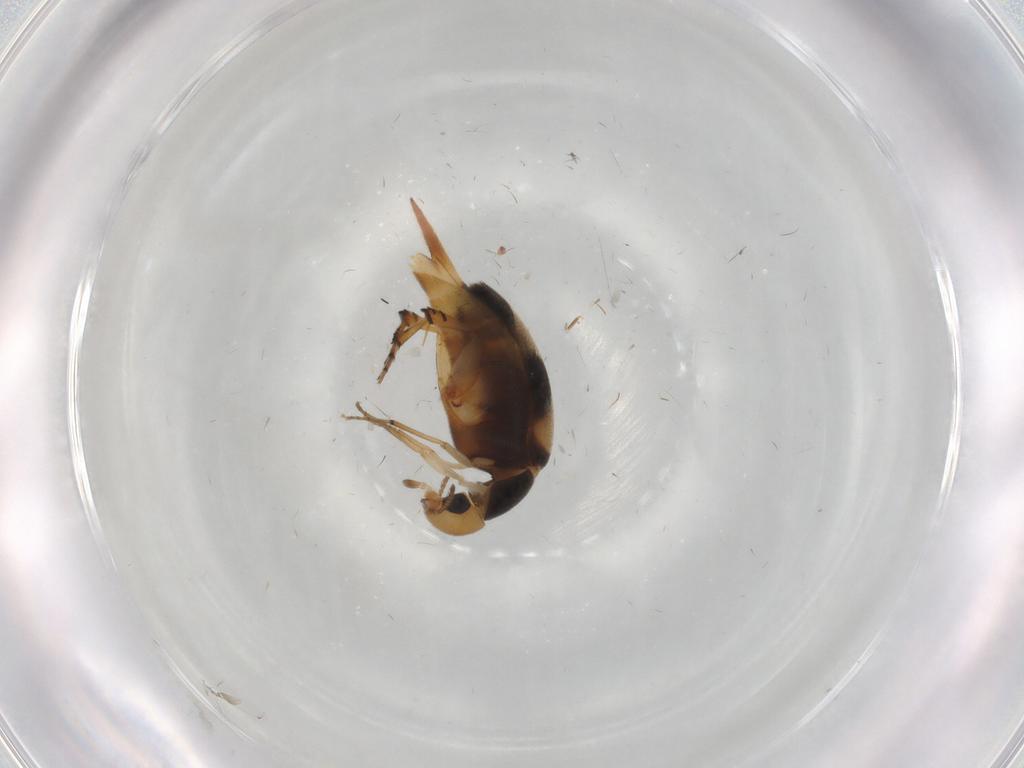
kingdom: Animalia
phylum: Arthropoda
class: Insecta
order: Coleoptera
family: Mordellidae
